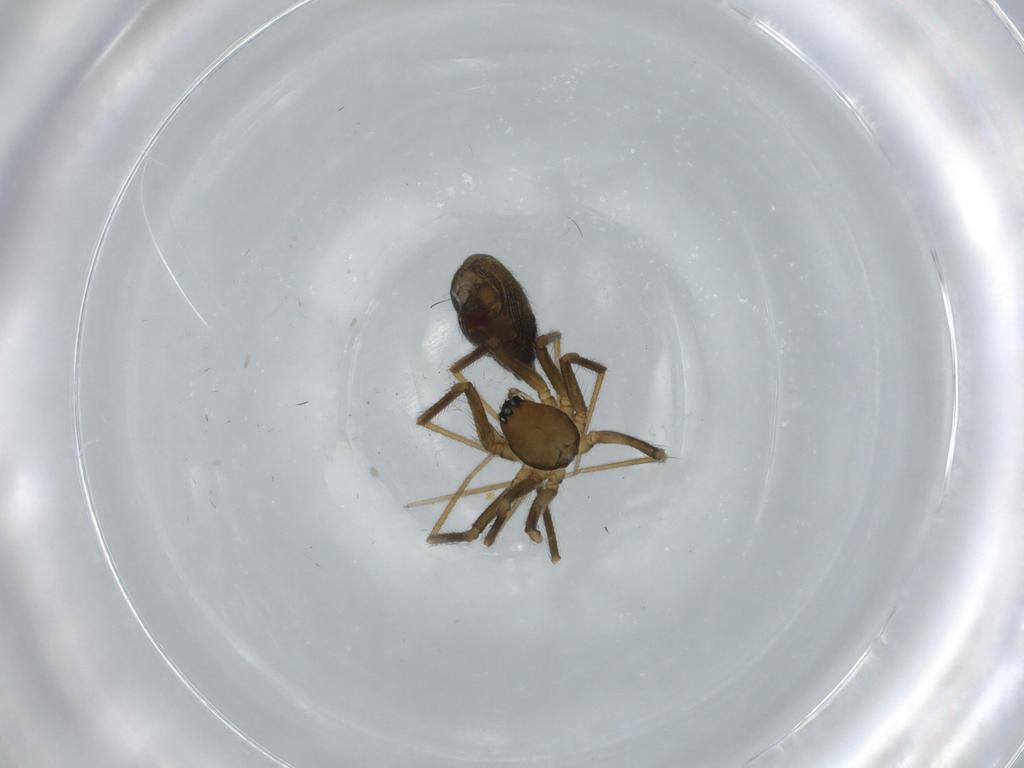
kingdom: Animalia
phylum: Arthropoda
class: Arachnida
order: Araneae
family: Linyphiidae
